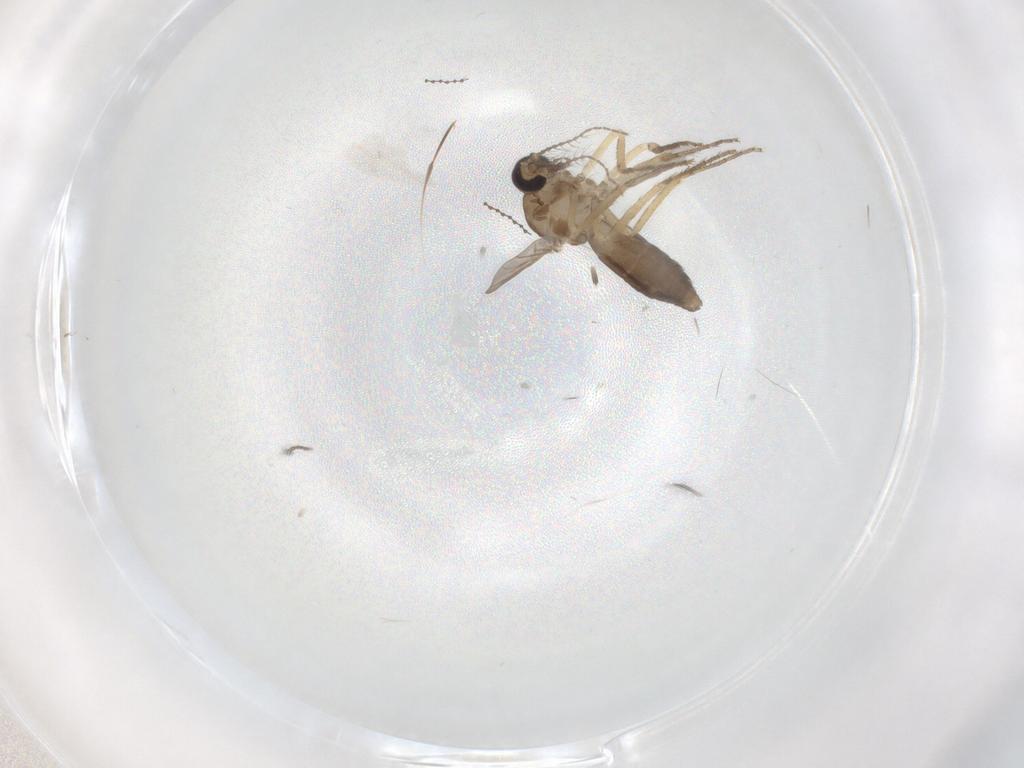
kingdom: Animalia
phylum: Arthropoda
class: Insecta
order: Diptera
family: Ceratopogonidae
